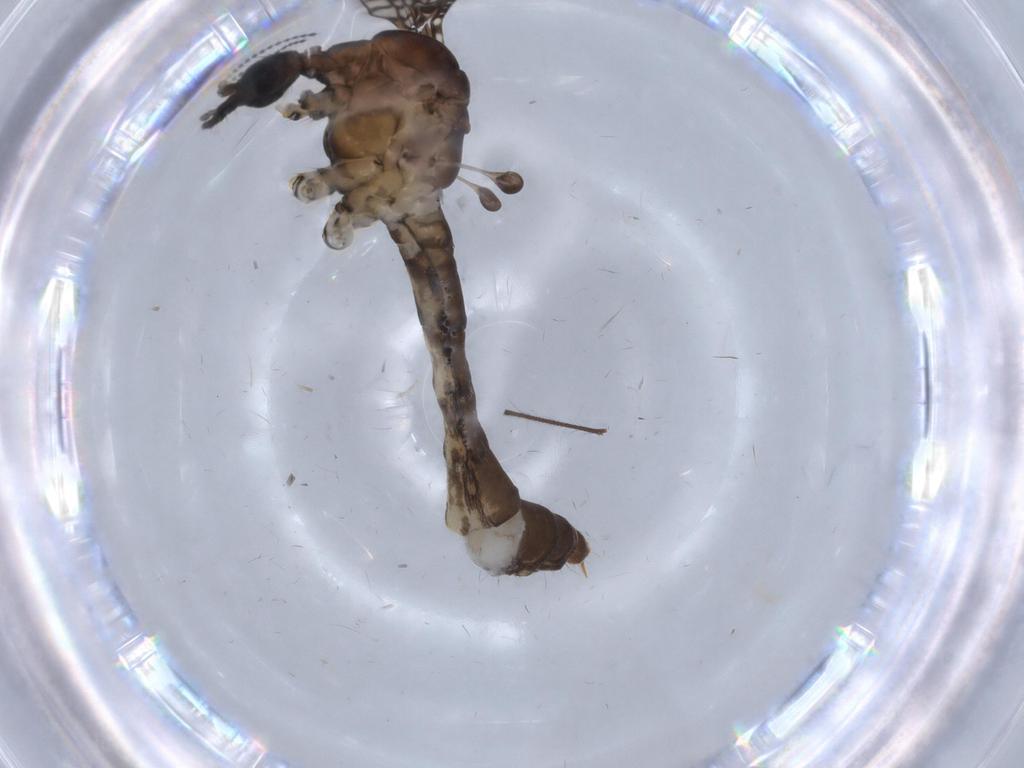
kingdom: Animalia
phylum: Arthropoda
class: Insecta
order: Diptera
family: Limoniidae
